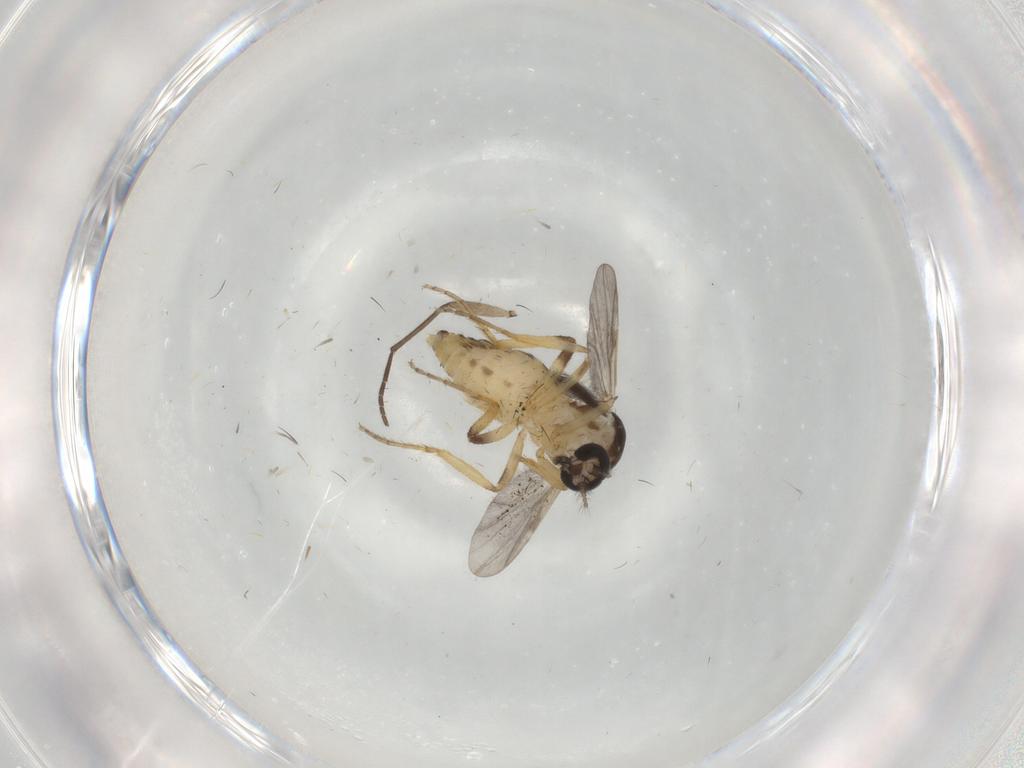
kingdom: Animalia
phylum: Arthropoda
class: Insecta
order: Diptera
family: Ceratopogonidae
